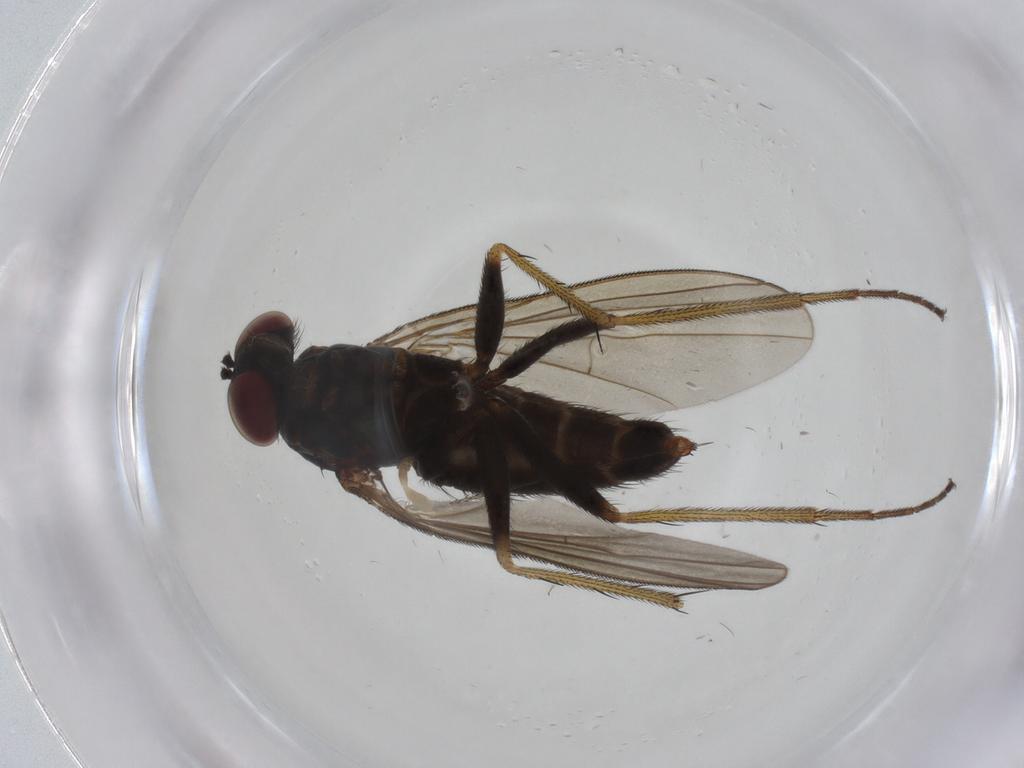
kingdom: Animalia
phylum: Arthropoda
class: Insecta
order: Diptera
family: Dolichopodidae
